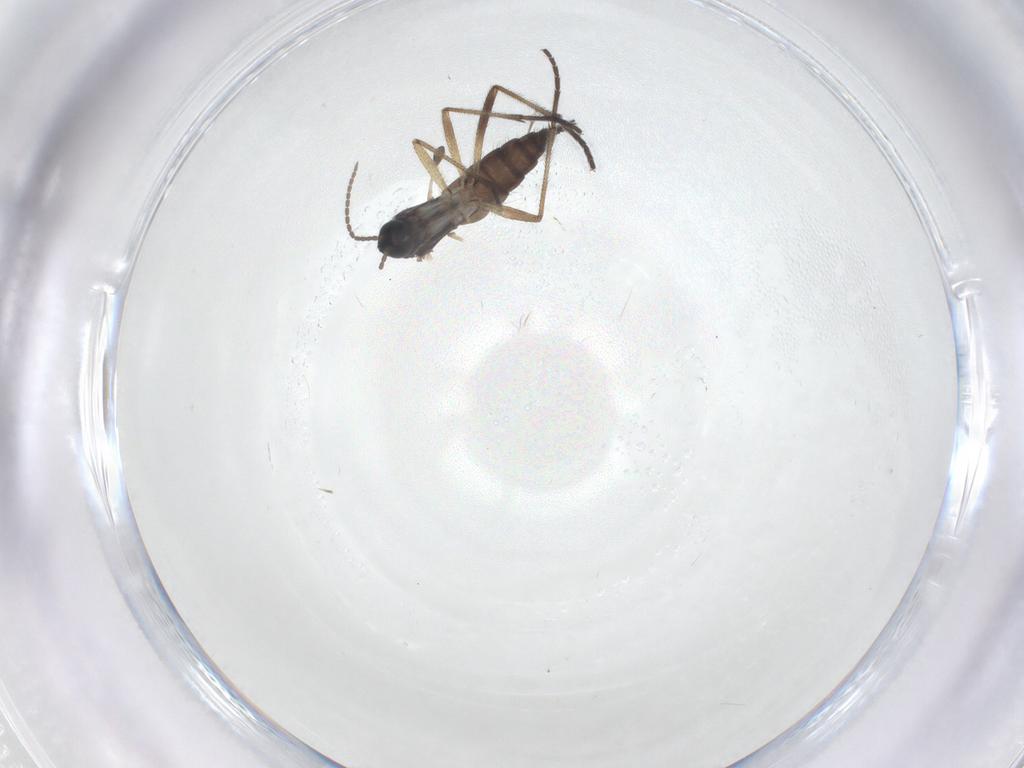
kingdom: Animalia
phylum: Arthropoda
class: Insecta
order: Diptera
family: Sciaridae
